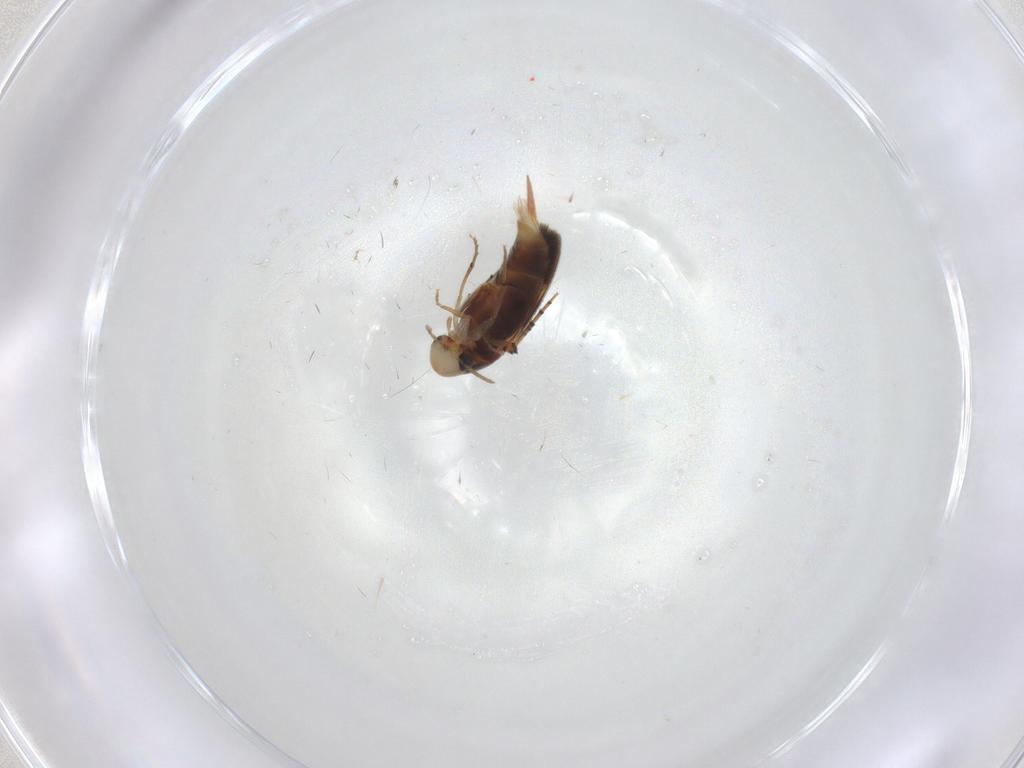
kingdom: Animalia
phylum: Arthropoda
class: Insecta
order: Coleoptera
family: Mordellidae
